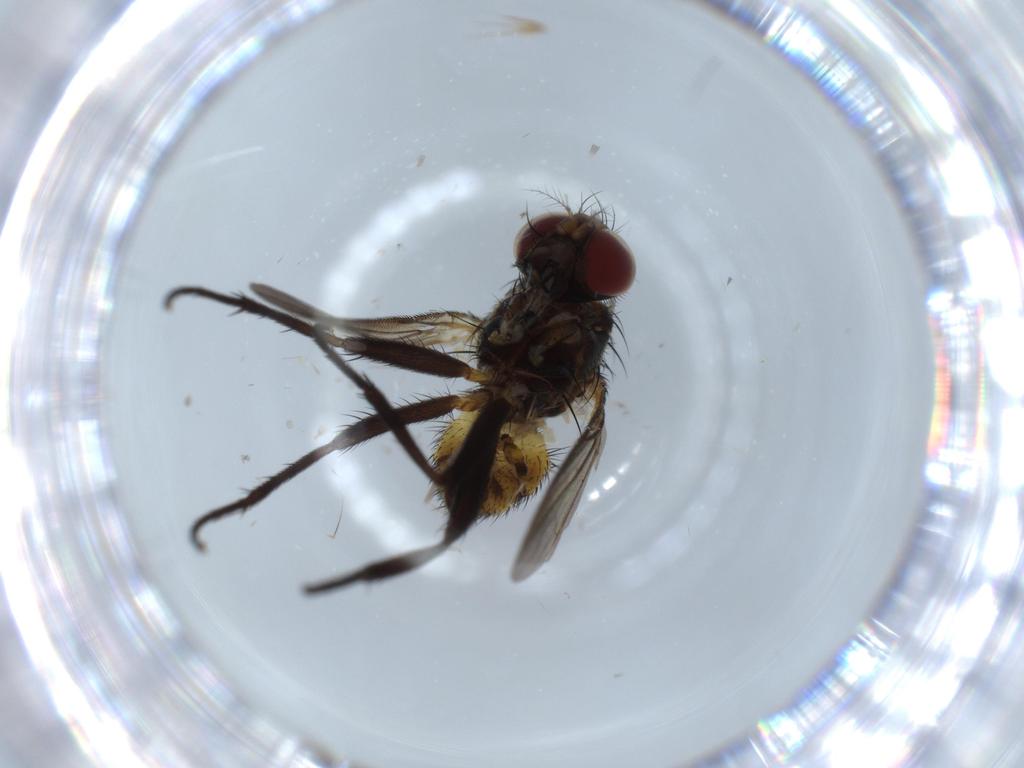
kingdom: Animalia
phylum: Arthropoda
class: Insecta
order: Diptera
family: Anthomyiidae
